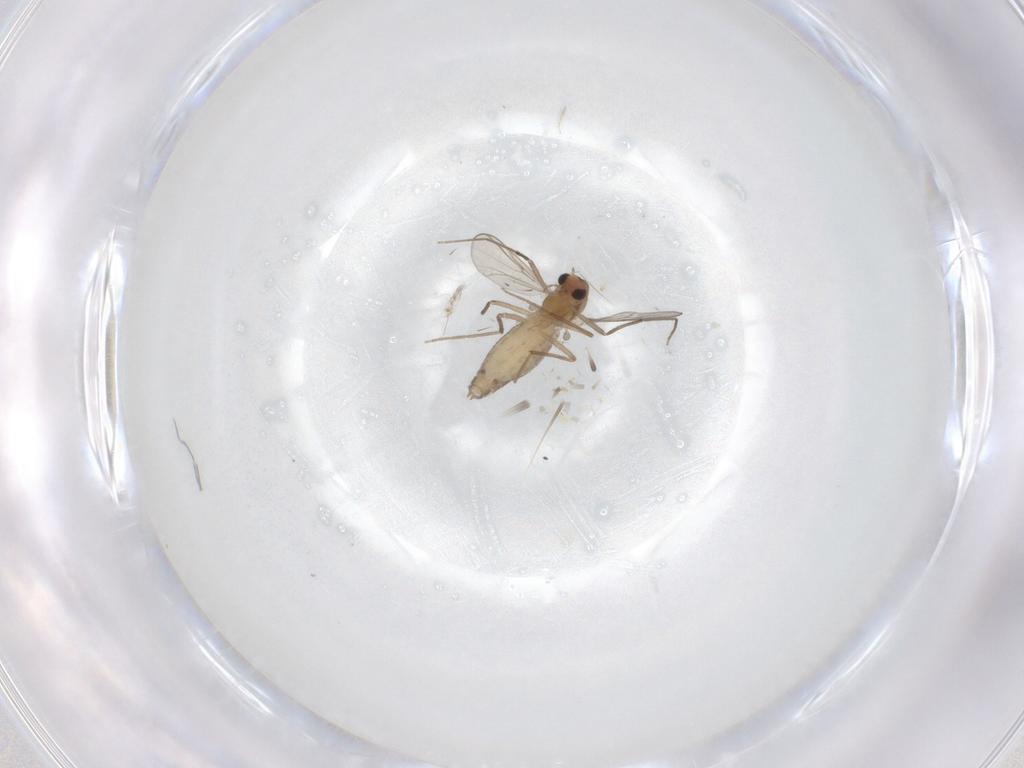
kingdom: Animalia
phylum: Arthropoda
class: Insecta
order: Diptera
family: Chironomidae
